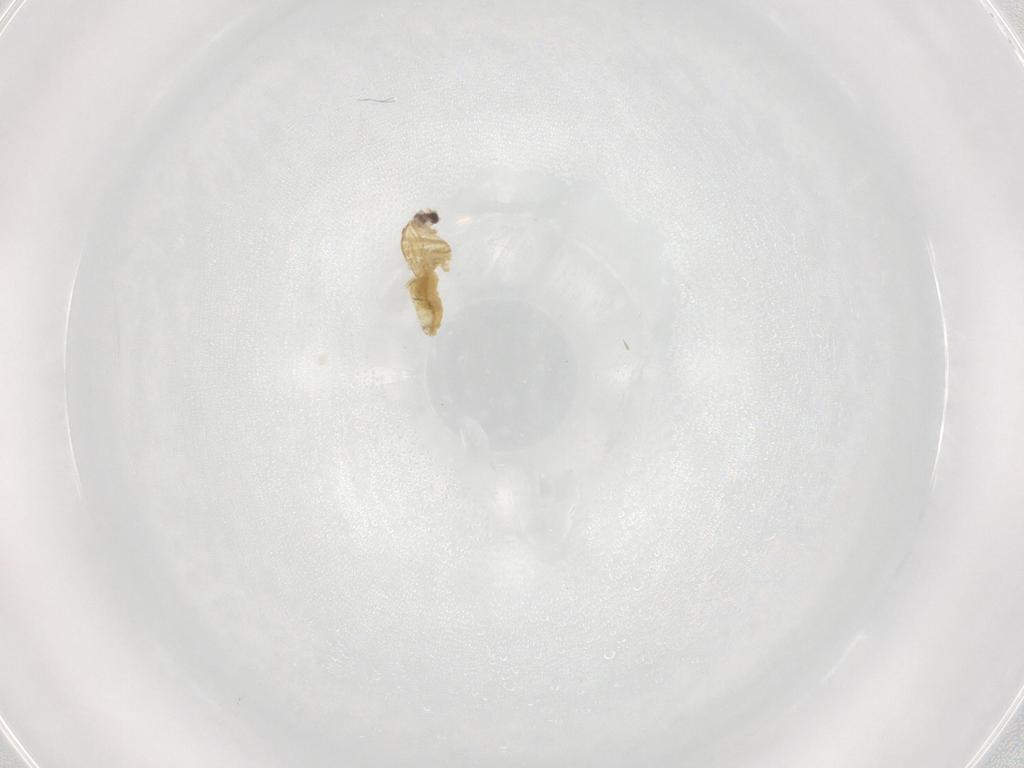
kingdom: Animalia
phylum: Arthropoda
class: Insecta
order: Diptera
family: Chironomidae
